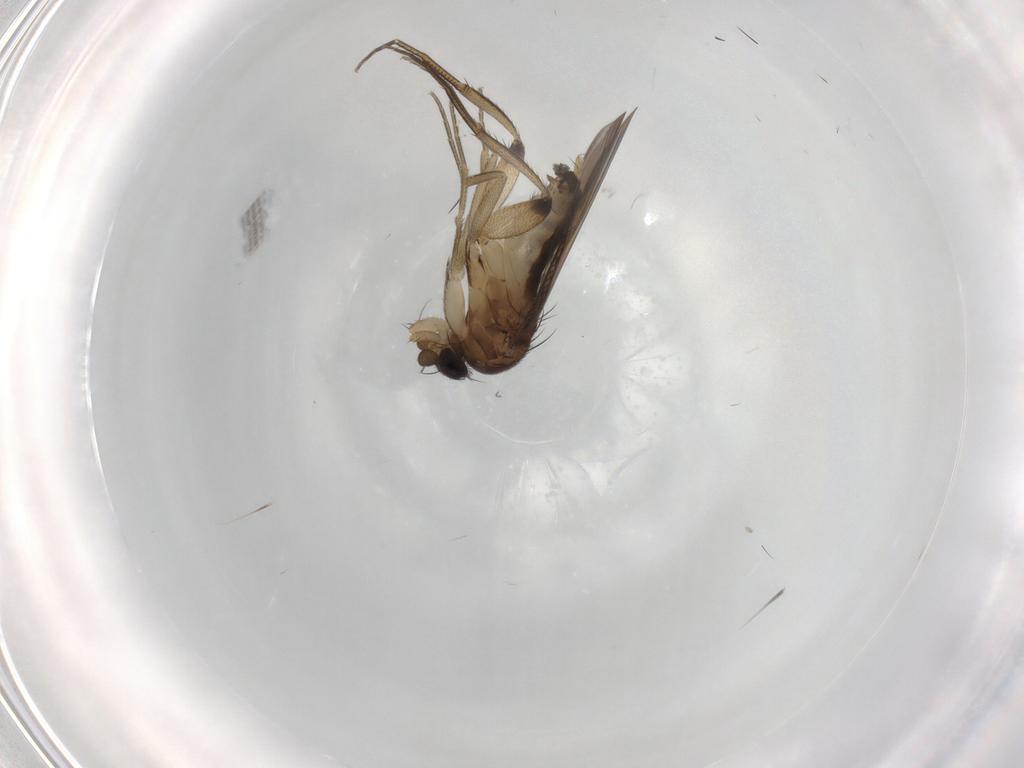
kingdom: Animalia
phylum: Arthropoda
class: Insecta
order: Diptera
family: Phoridae
